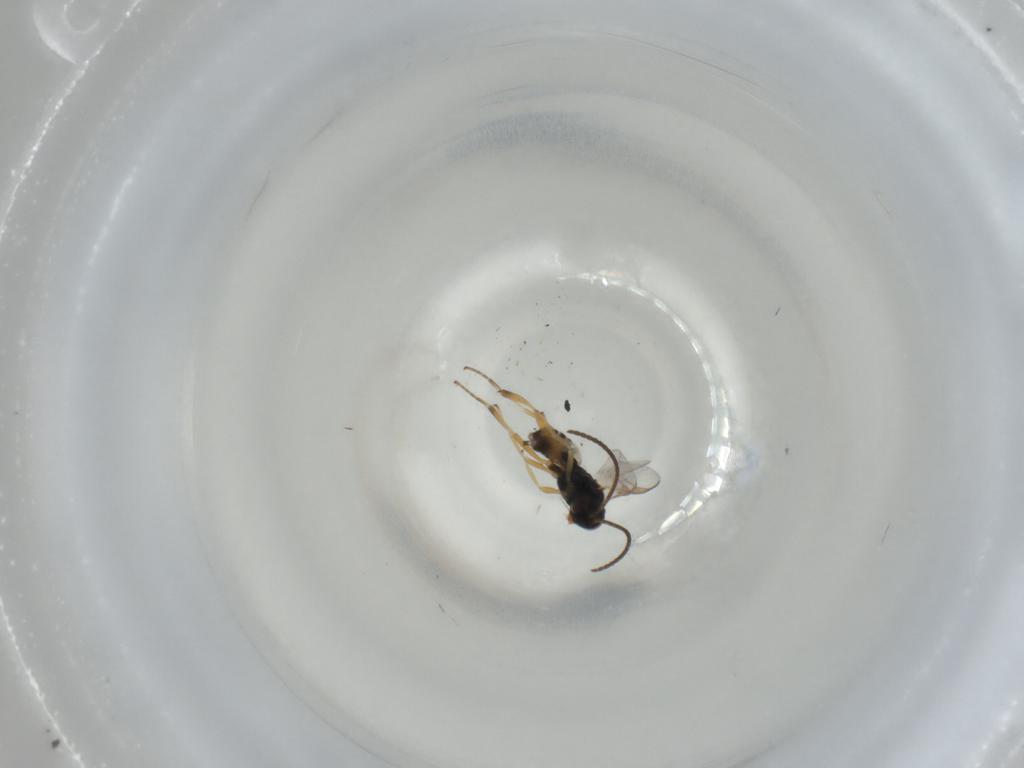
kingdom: Animalia
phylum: Arthropoda
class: Insecta
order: Hymenoptera
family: Braconidae
